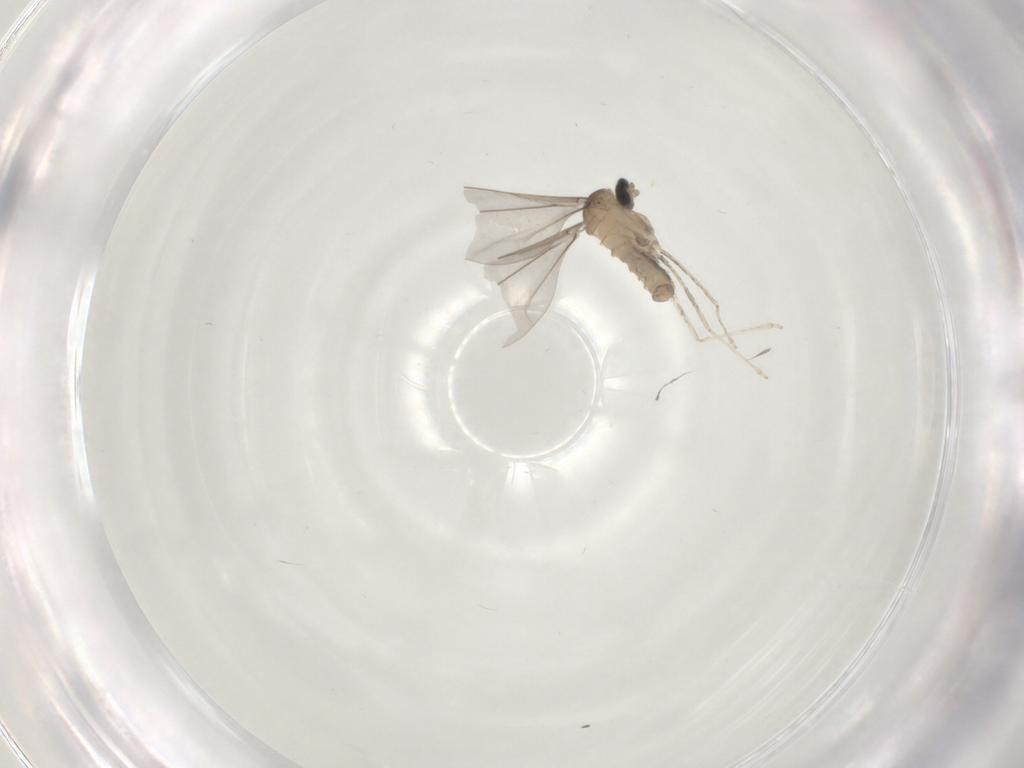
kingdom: Animalia
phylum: Arthropoda
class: Insecta
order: Diptera
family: Cecidomyiidae
